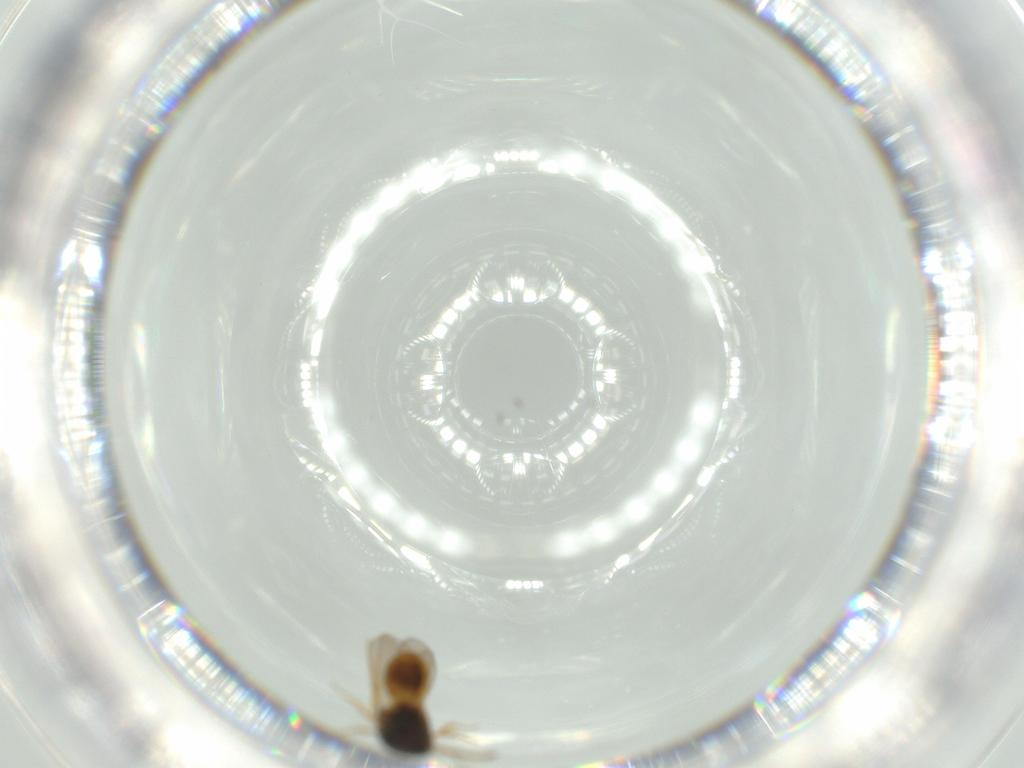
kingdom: Animalia
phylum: Arthropoda
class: Insecta
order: Hymenoptera
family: Scelionidae
